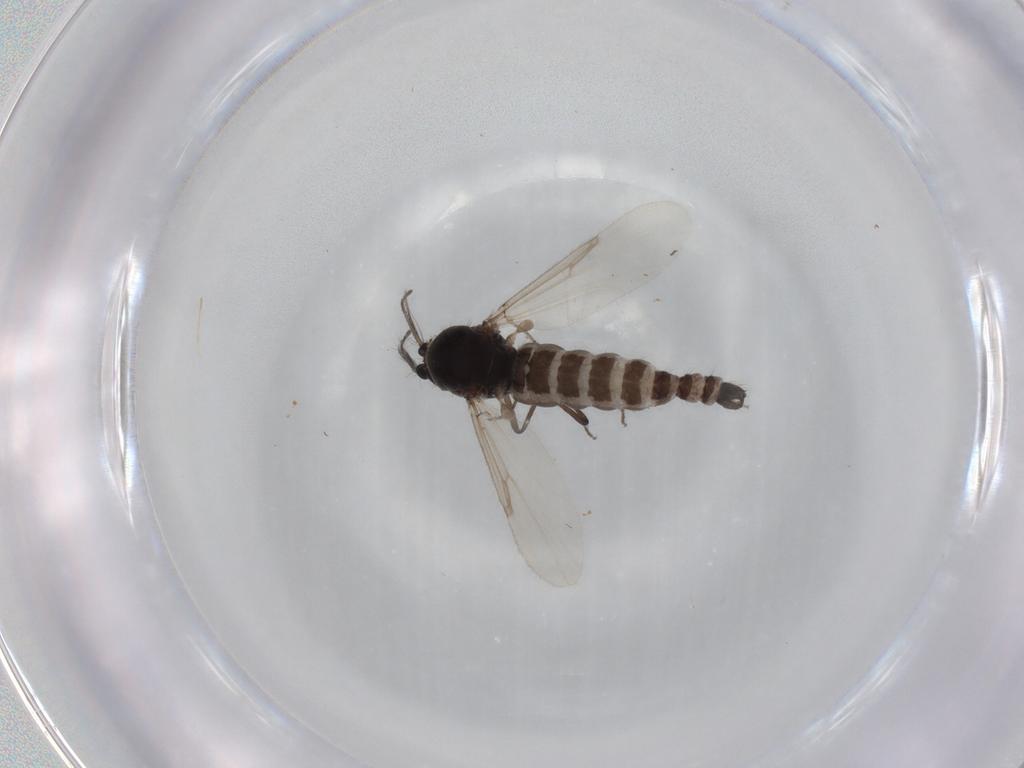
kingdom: Animalia
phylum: Arthropoda
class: Insecta
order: Diptera
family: Ceratopogonidae
